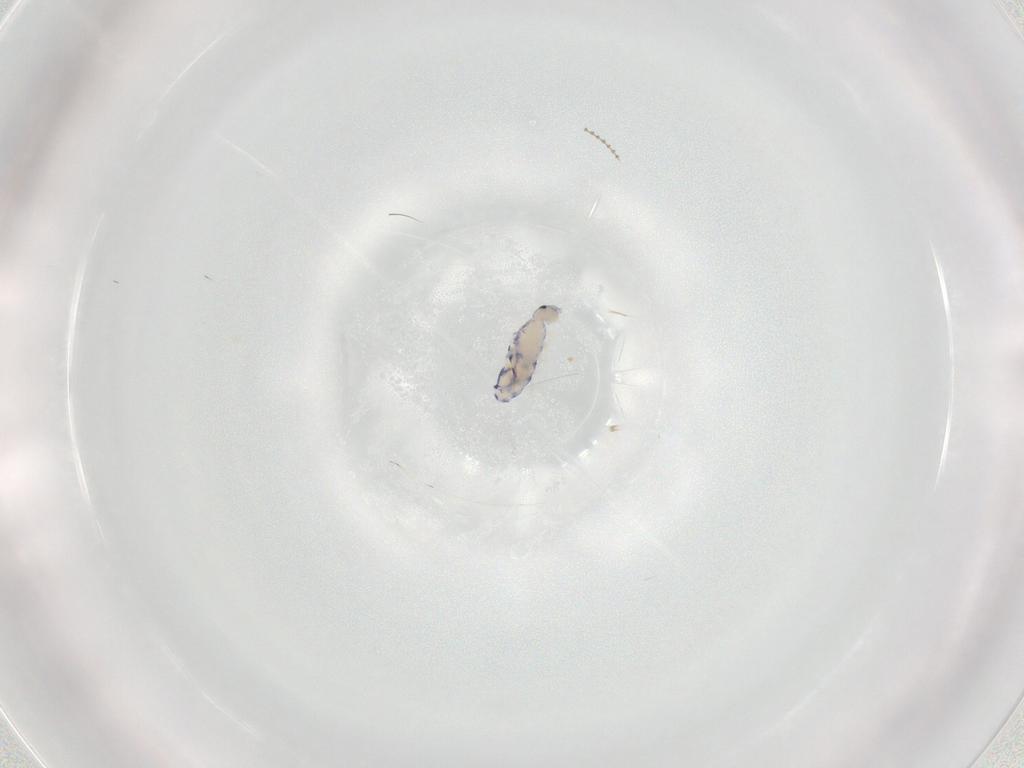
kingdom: Animalia
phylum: Arthropoda
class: Collembola
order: Entomobryomorpha
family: Entomobryidae
